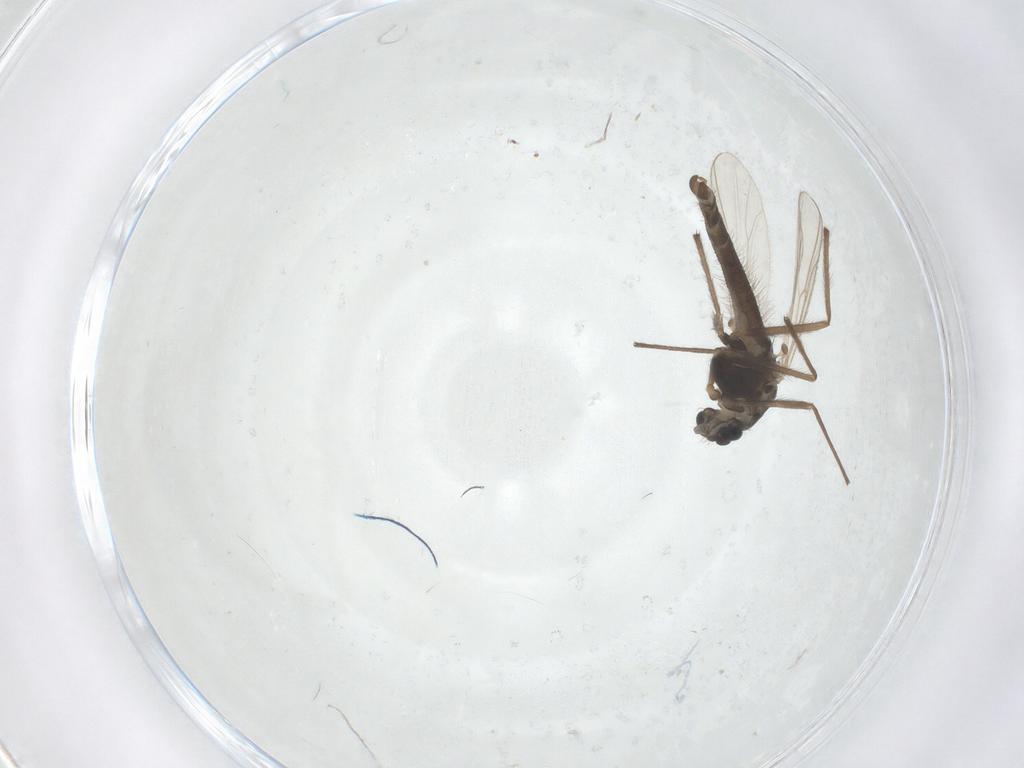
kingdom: Animalia
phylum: Arthropoda
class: Insecta
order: Diptera
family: Chironomidae
